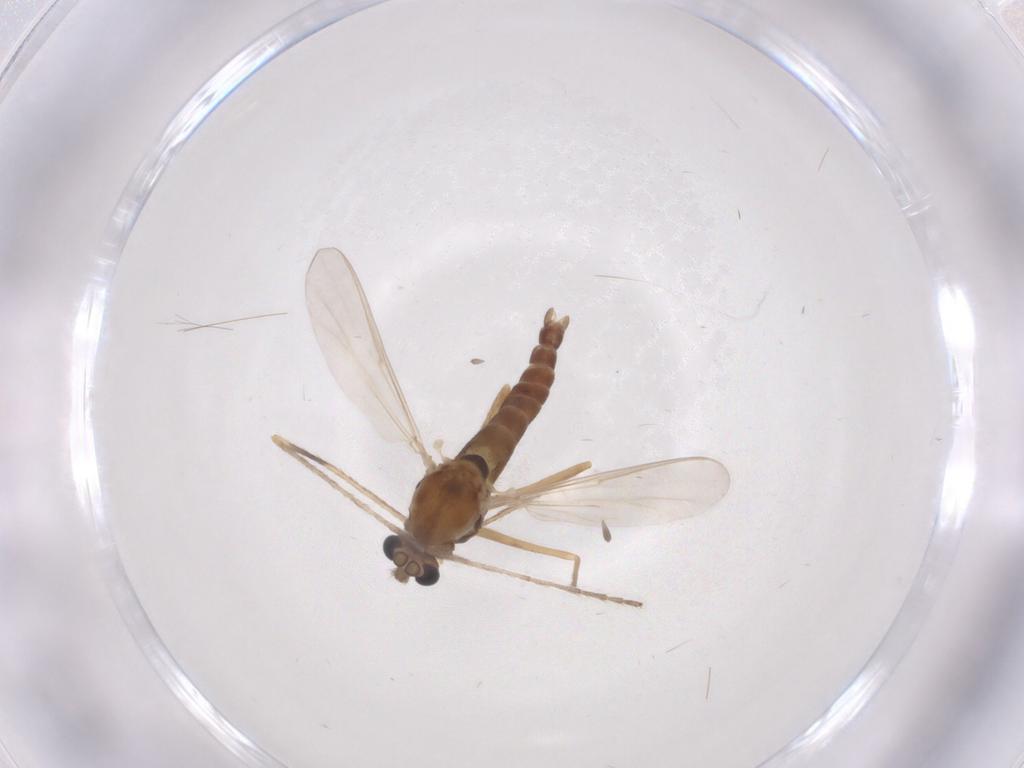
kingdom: Animalia
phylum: Arthropoda
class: Insecta
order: Diptera
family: Chironomidae
